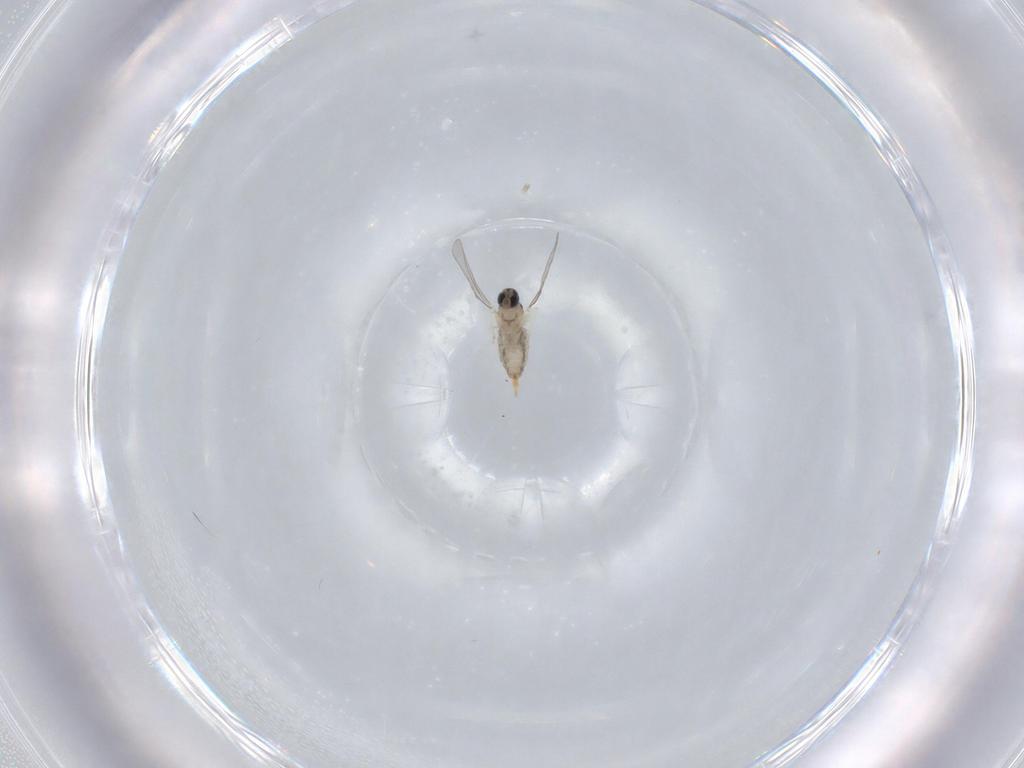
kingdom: Animalia
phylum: Arthropoda
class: Insecta
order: Diptera
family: Cecidomyiidae
